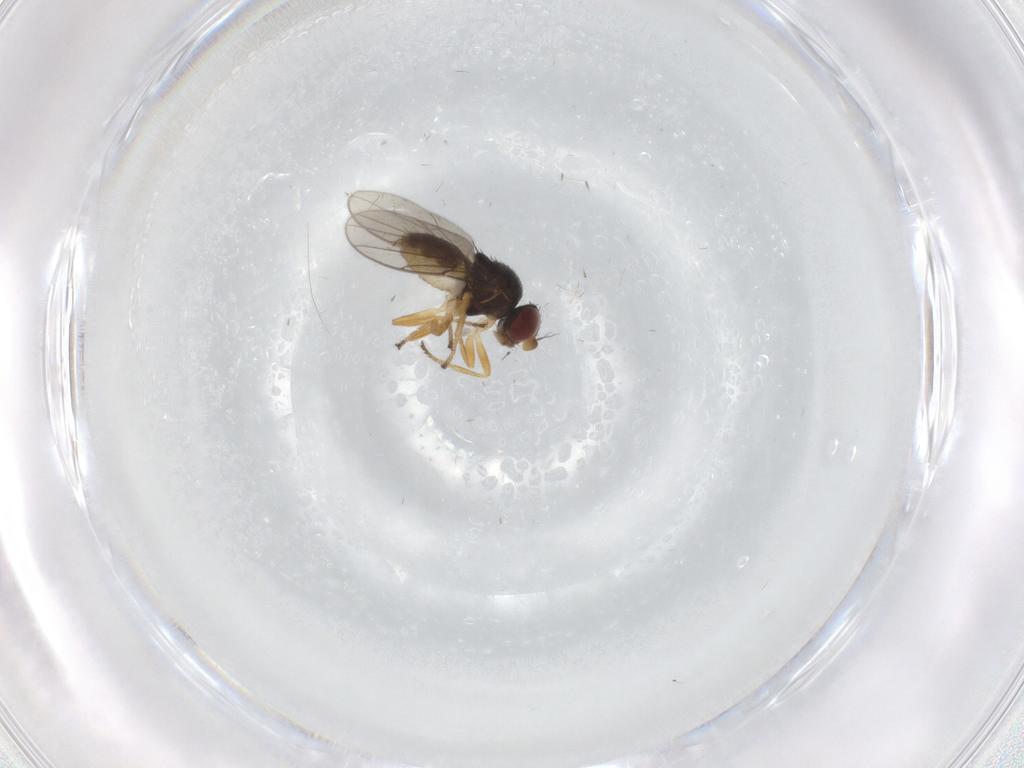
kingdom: Animalia
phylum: Arthropoda
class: Insecta
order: Diptera
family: Chloropidae
